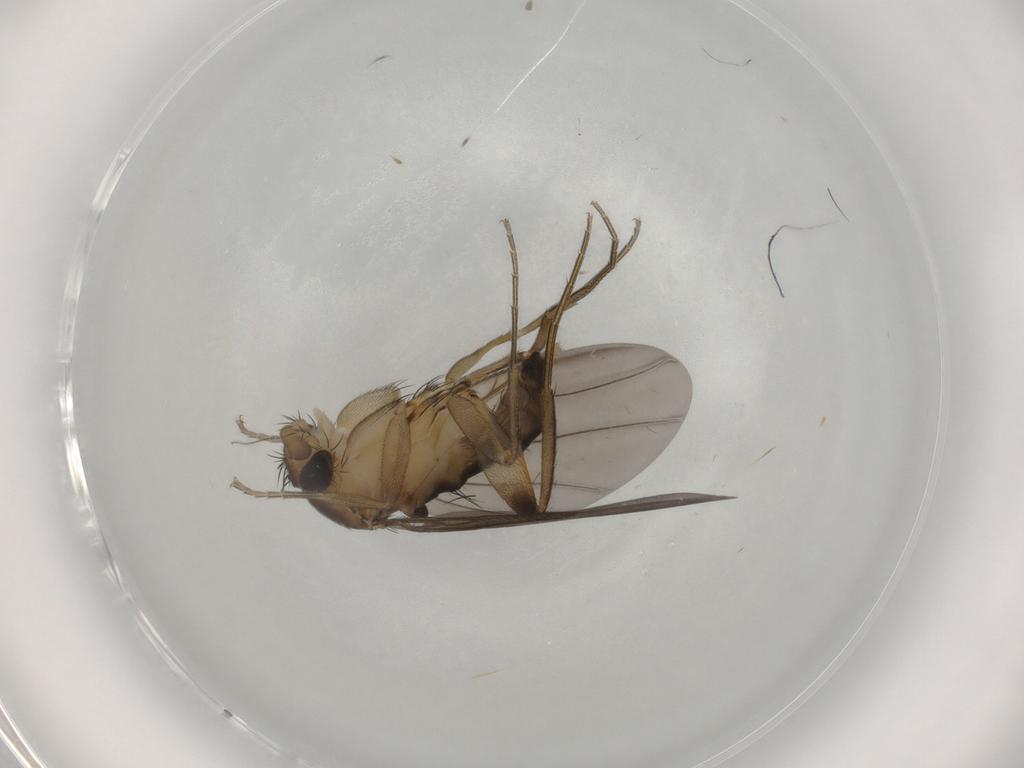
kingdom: Animalia
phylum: Arthropoda
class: Insecta
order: Diptera
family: Phoridae
